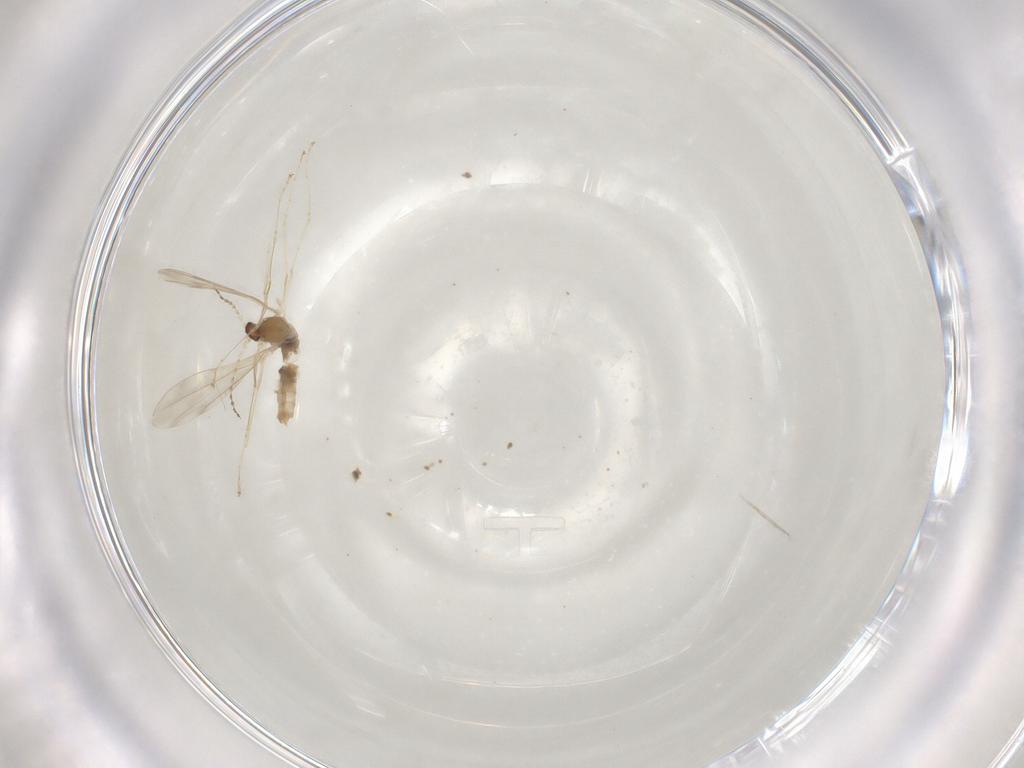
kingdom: Animalia
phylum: Arthropoda
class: Insecta
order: Diptera
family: Cecidomyiidae
